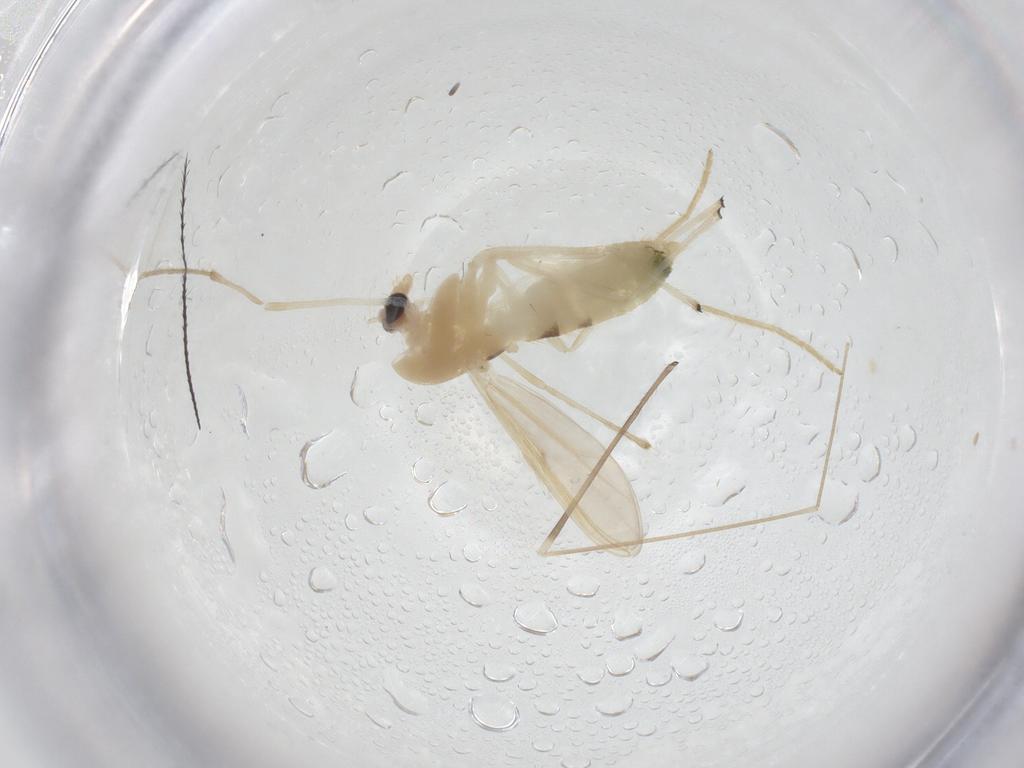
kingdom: Animalia
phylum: Arthropoda
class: Insecta
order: Diptera
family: Chironomidae
